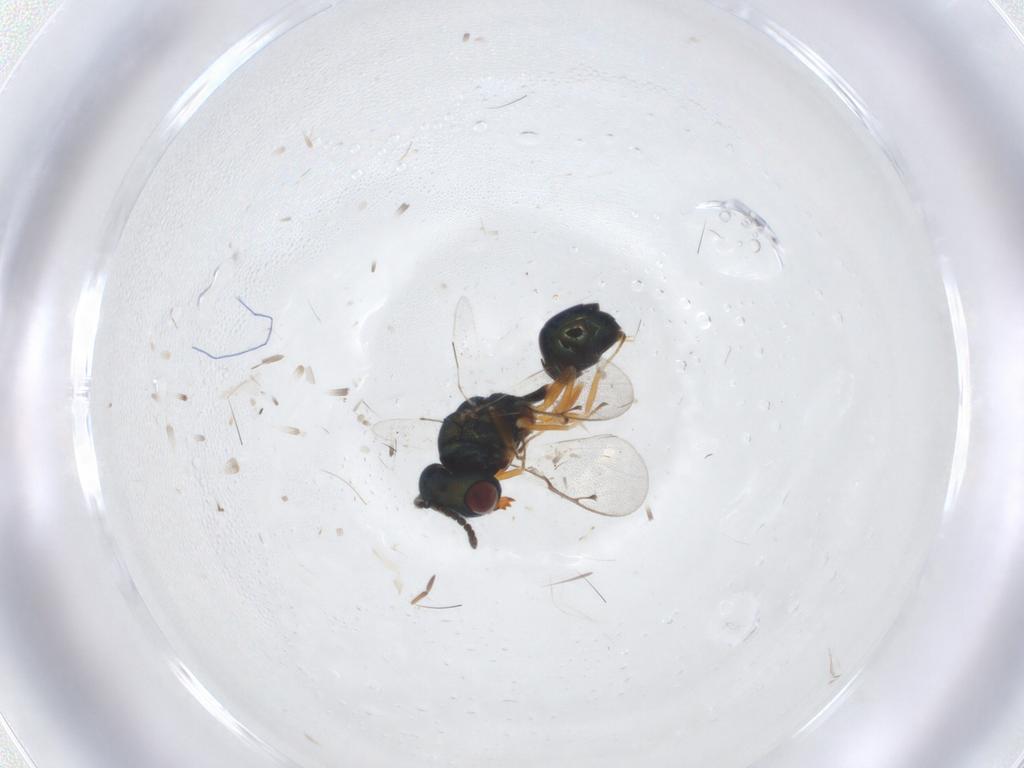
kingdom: Animalia
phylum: Arthropoda
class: Insecta
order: Hymenoptera
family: Pteromalidae
